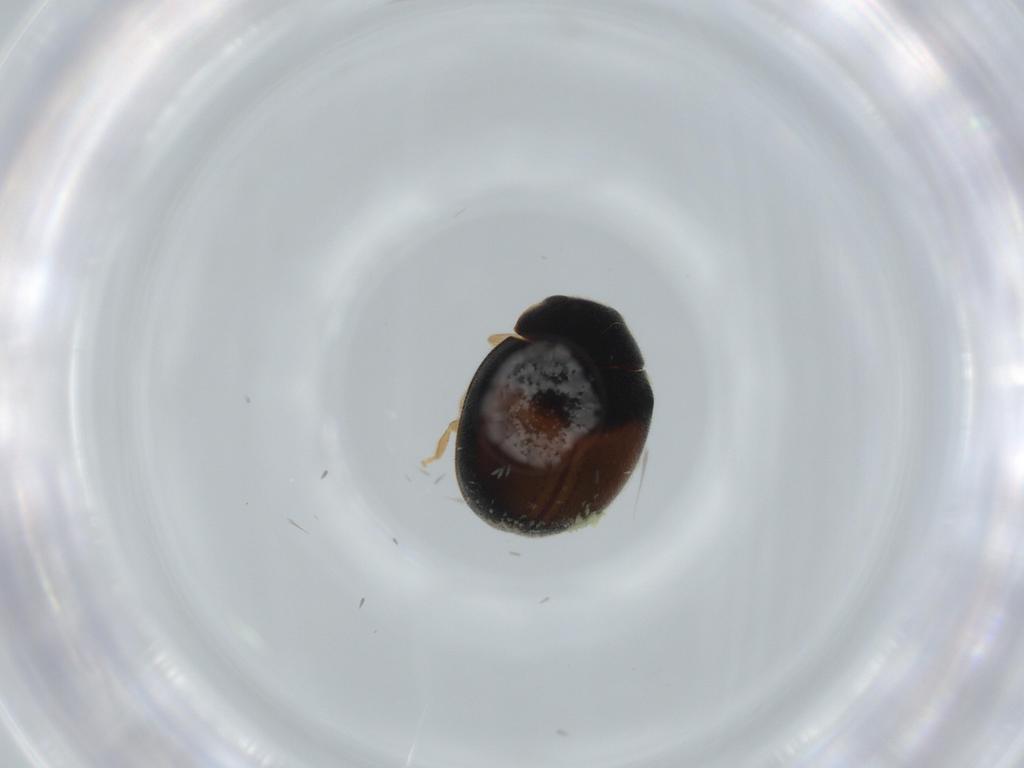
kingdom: Animalia
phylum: Arthropoda
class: Insecta
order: Coleoptera
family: Coccinellidae
